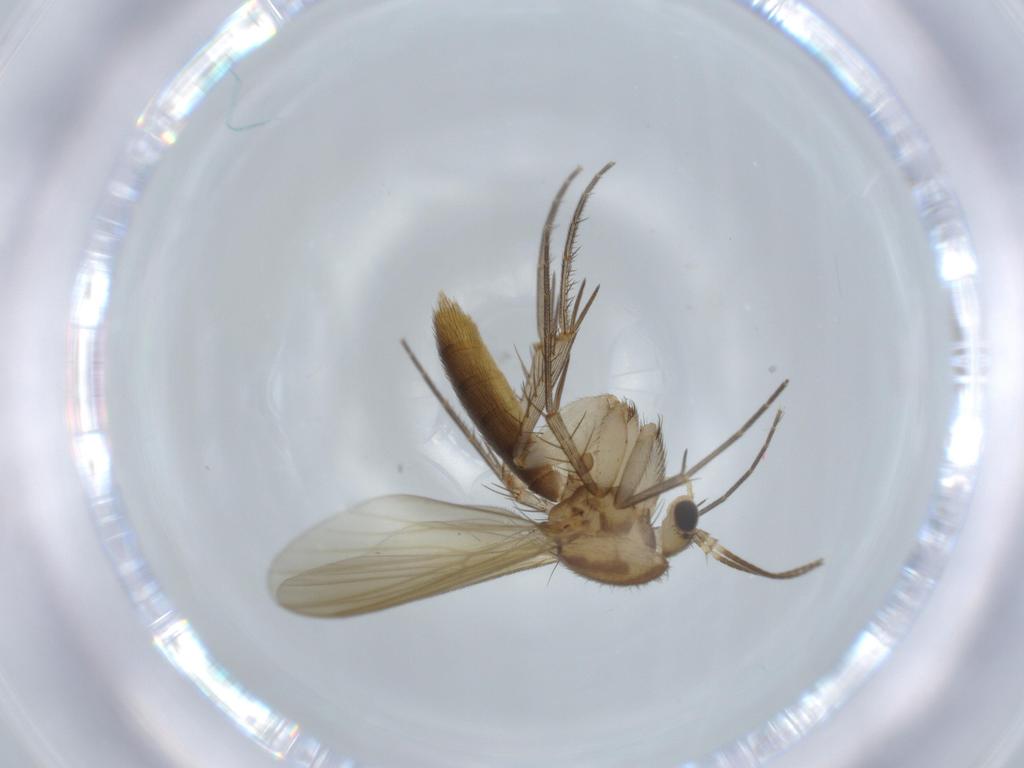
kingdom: Animalia
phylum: Arthropoda
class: Insecta
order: Diptera
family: Mycetophilidae
